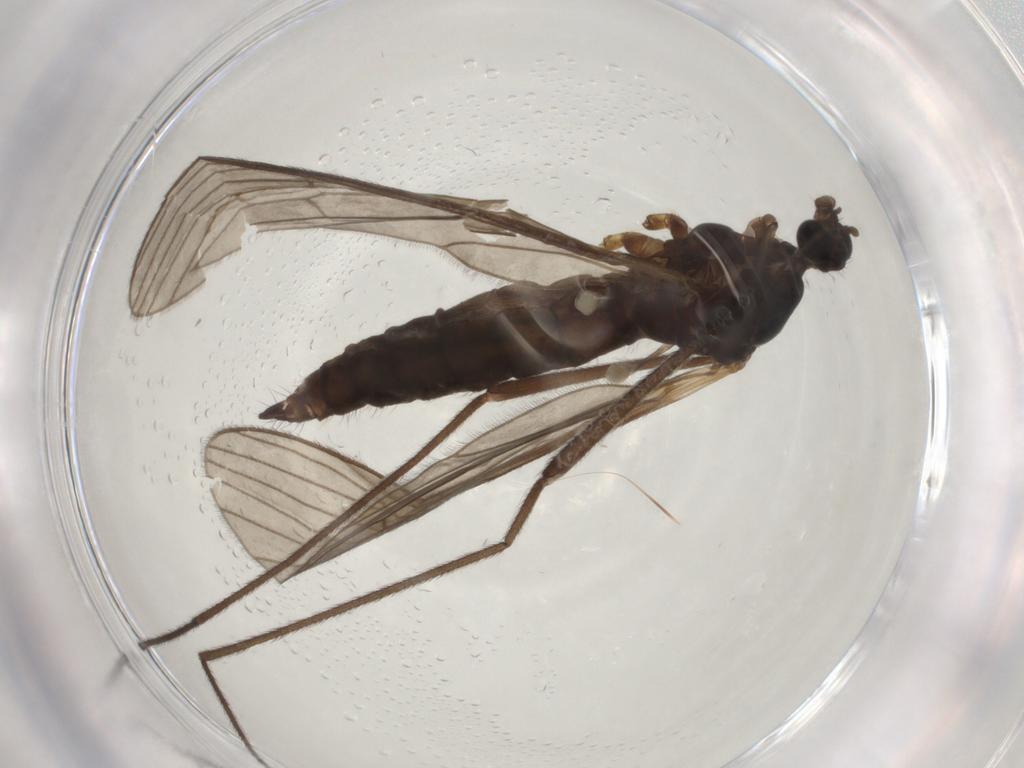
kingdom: Animalia
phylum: Arthropoda
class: Insecta
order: Diptera
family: Limoniidae
